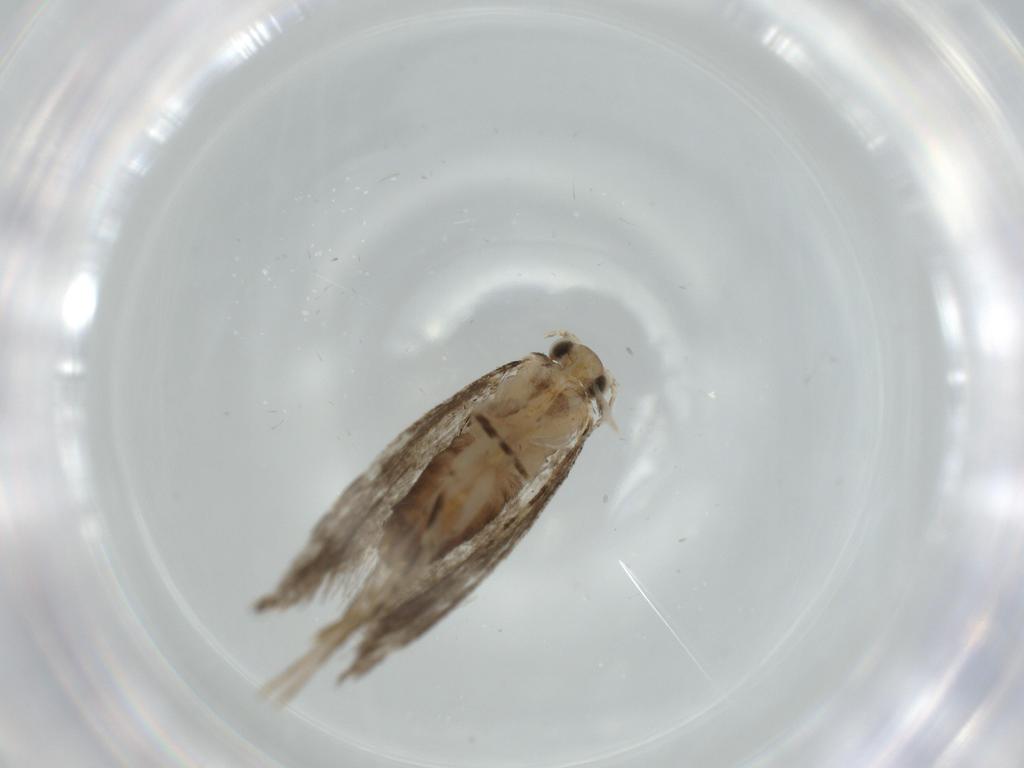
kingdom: Animalia
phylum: Arthropoda
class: Insecta
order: Lepidoptera
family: Tineidae
